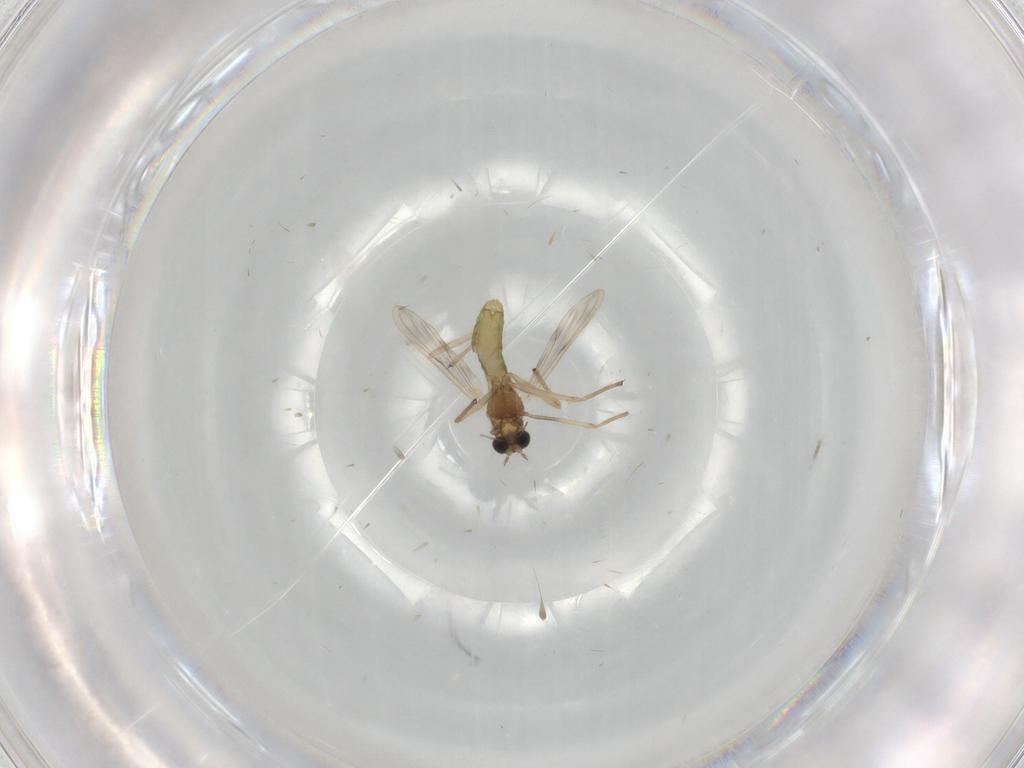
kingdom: Animalia
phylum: Arthropoda
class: Insecta
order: Diptera
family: Chironomidae
